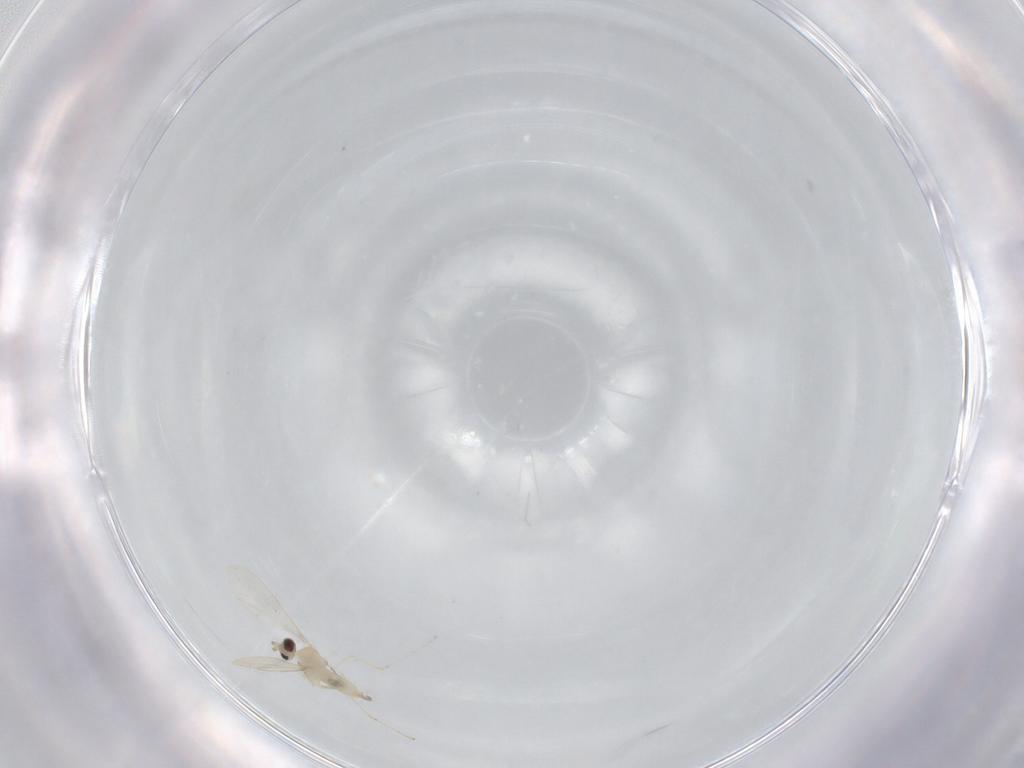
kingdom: Animalia
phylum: Arthropoda
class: Insecta
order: Diptera
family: Cecidomyiidae
